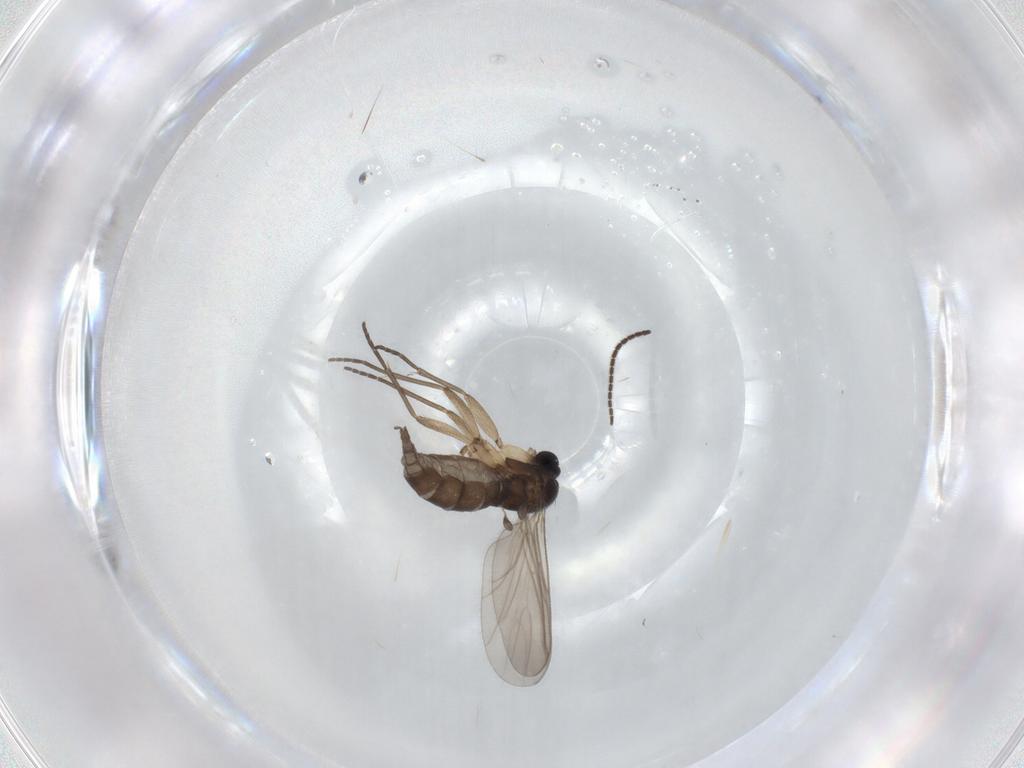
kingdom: Animalia
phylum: Arthropoda
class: Insecta
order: Diptera
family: Sciaridae
